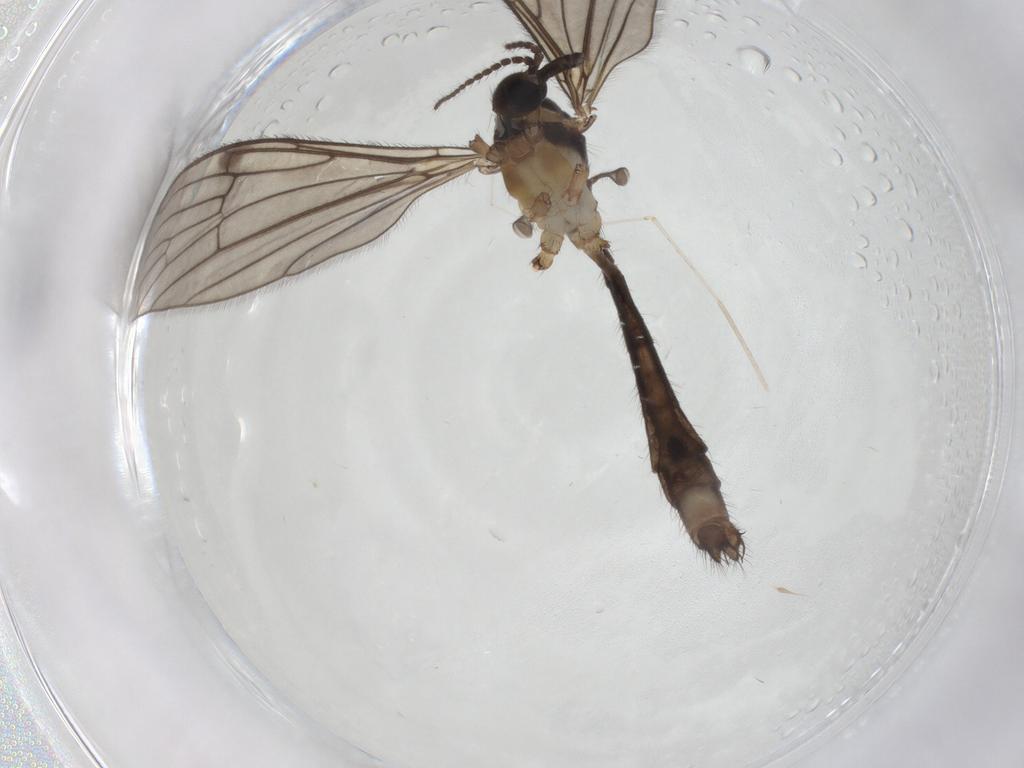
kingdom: Animalia
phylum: Arthropoda
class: Insecta
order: Diptera
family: Limoniidae
